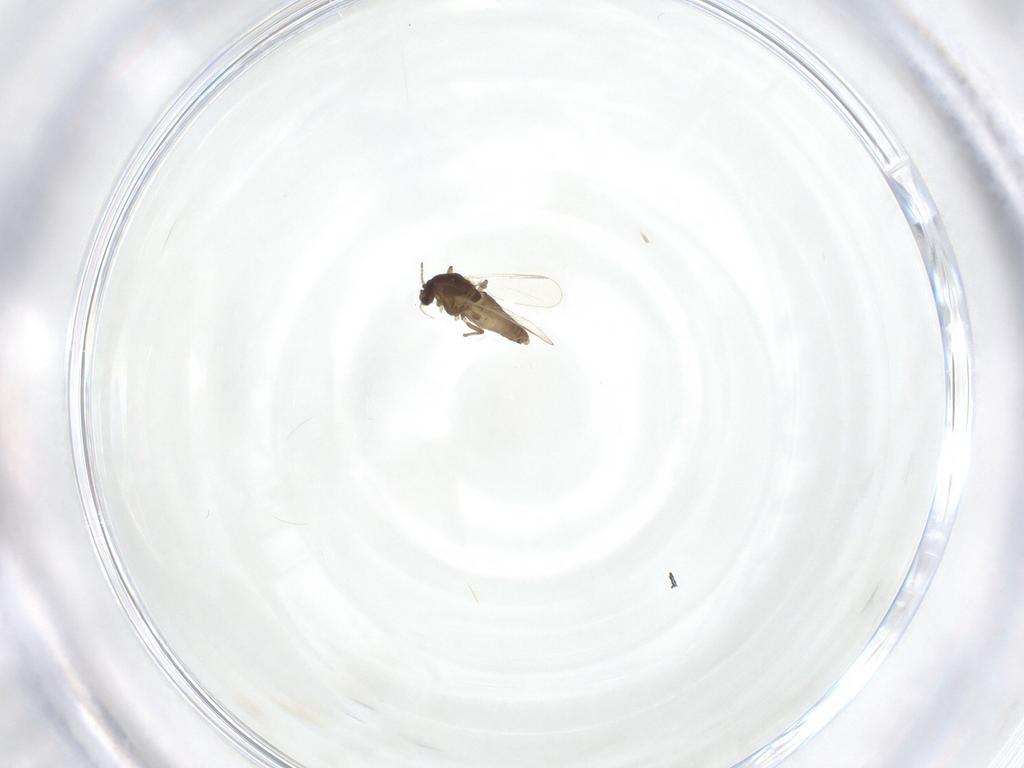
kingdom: Animalia
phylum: Arthropoda
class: Insecta
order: Diptera
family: Chironomidae
